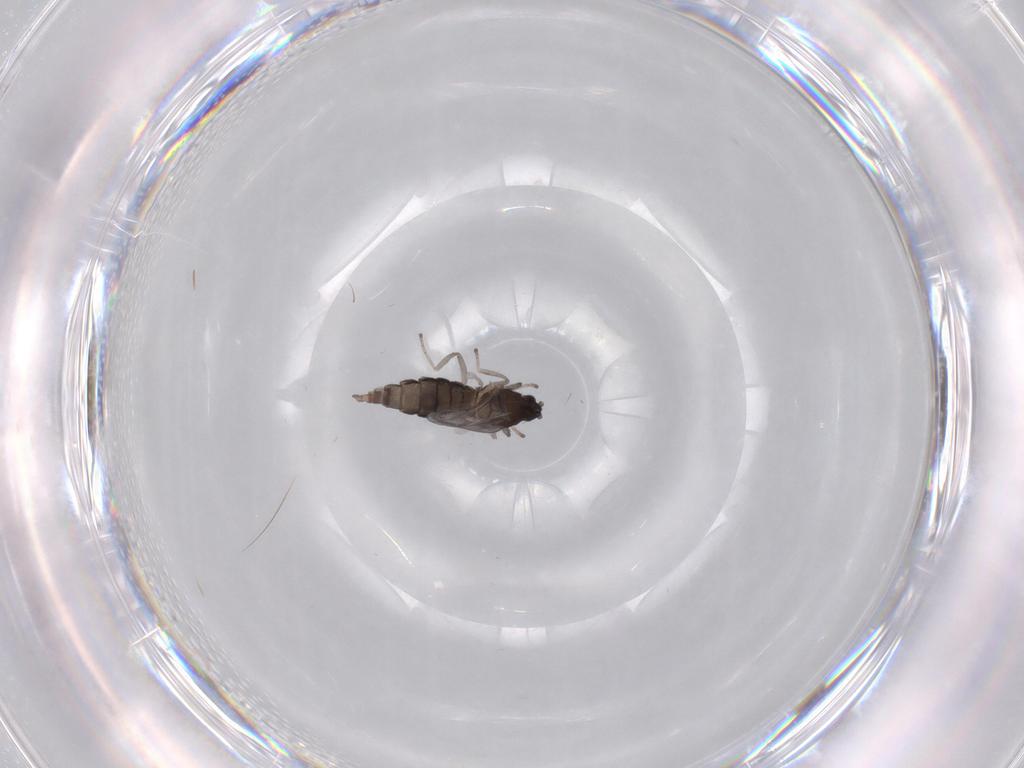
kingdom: Animalia
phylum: Arthropoda
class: Insecta
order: Diptera
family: Cecidomyiidae
